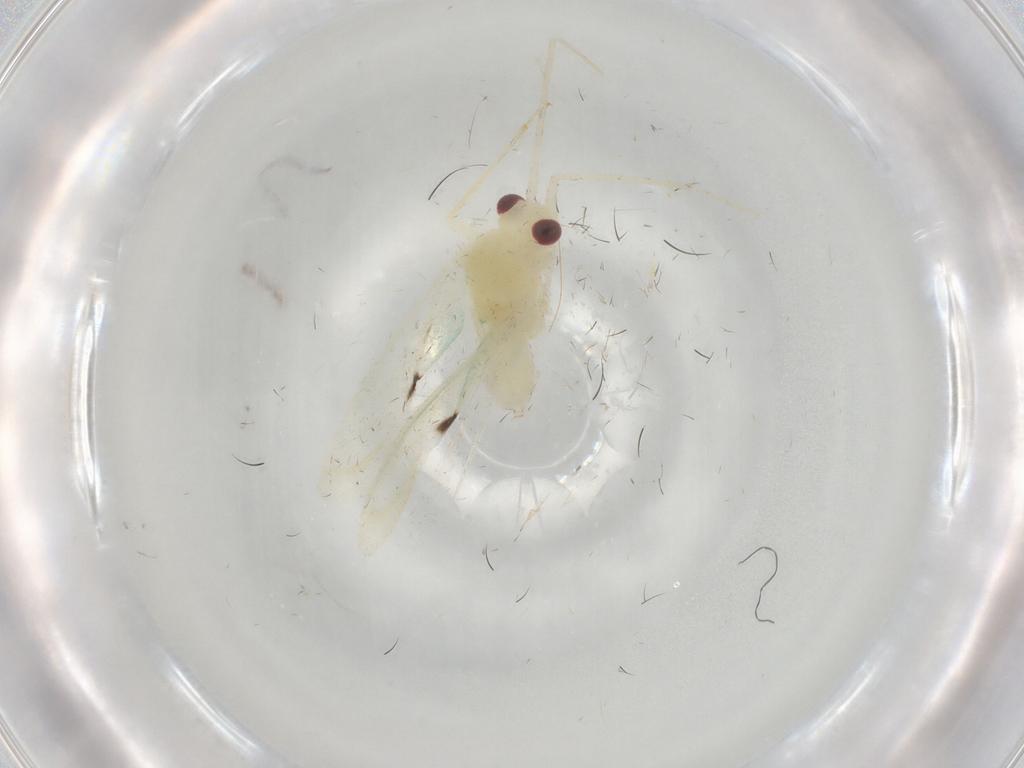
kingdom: Animalia
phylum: Arthropoda
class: Insecta
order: Hemiptera
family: Miridae
